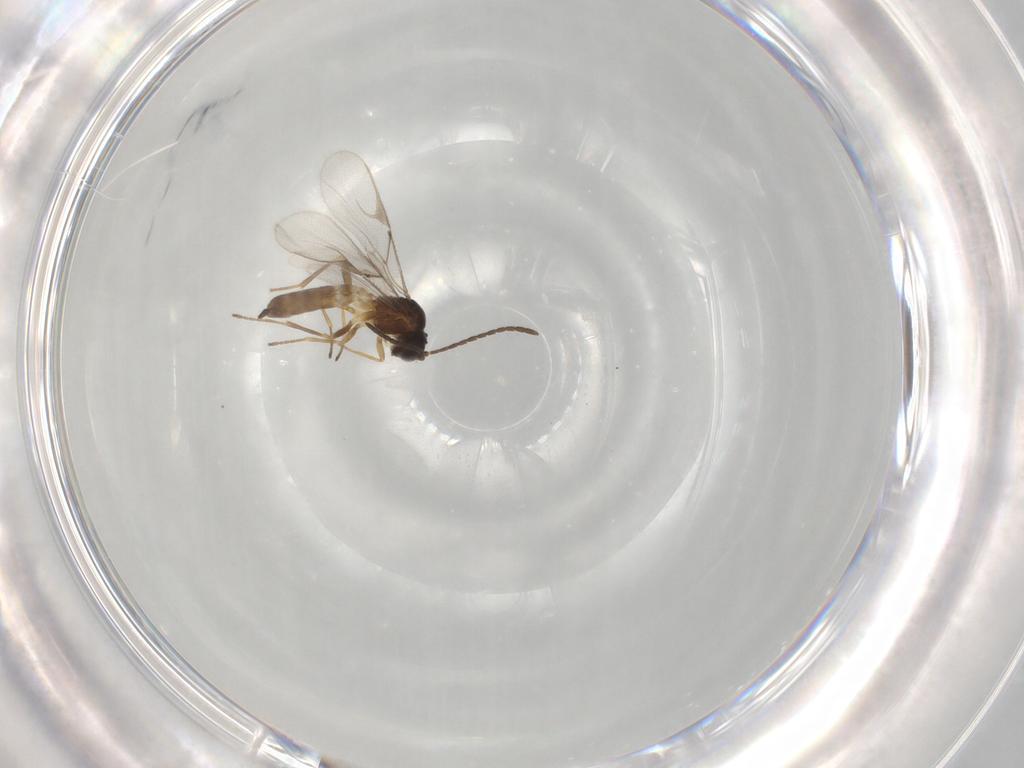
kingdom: Animalia
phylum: Arthropoda
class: Insecta
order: Hymenoptera
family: Braconidae
